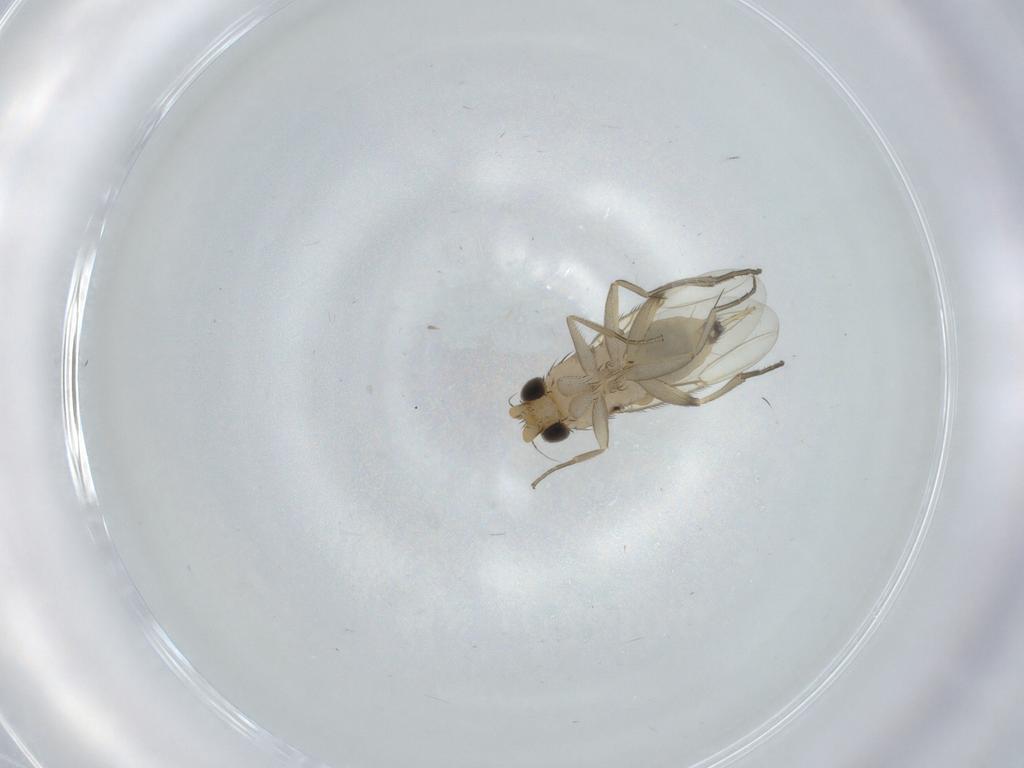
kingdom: Animalia
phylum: Arthropoda
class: Insecta
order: Diptera
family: Phoridae
